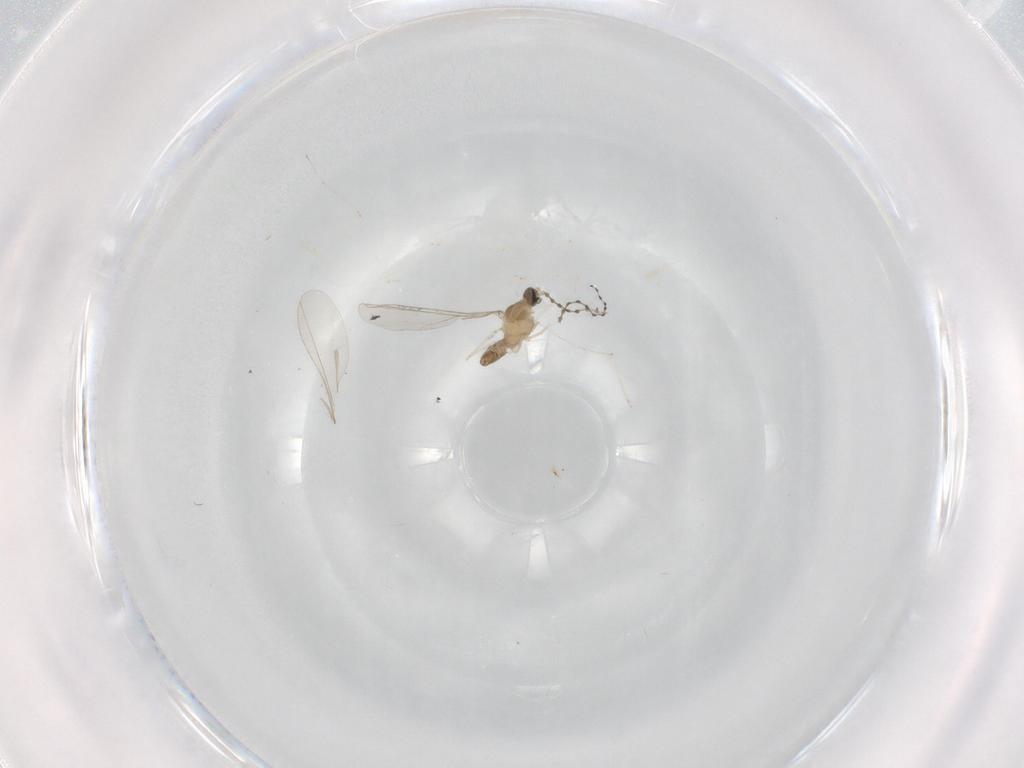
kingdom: Animalia
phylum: Arthropoda
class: Insecta
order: Diptera
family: Cecidomyiidae
